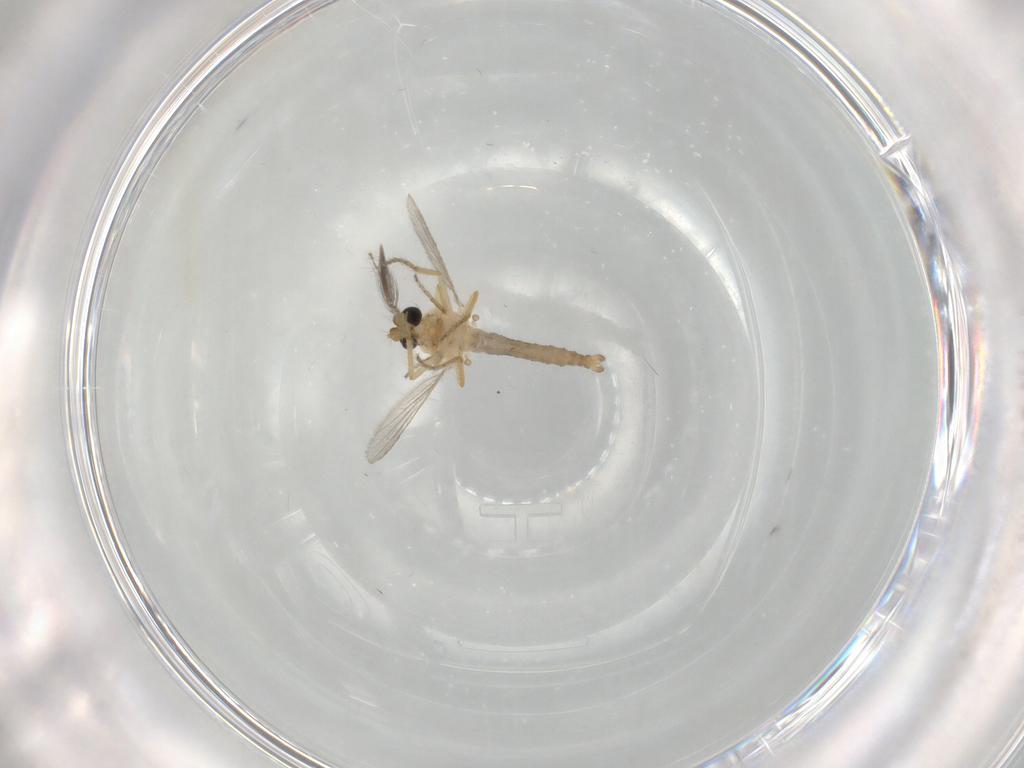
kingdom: Animalia
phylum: Arthropoda
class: Insecta
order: Diptera
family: Ceratopogonidae
